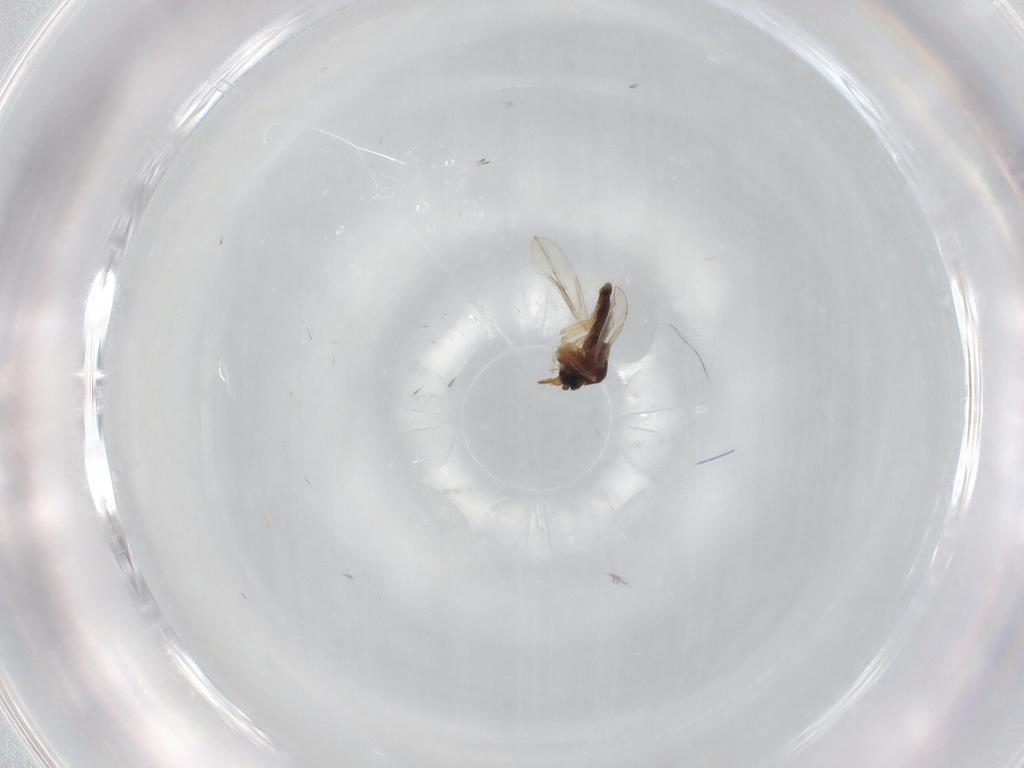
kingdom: Animalia
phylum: Arthropoda
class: Insecta
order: Diptera
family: Ceratopogonidae
